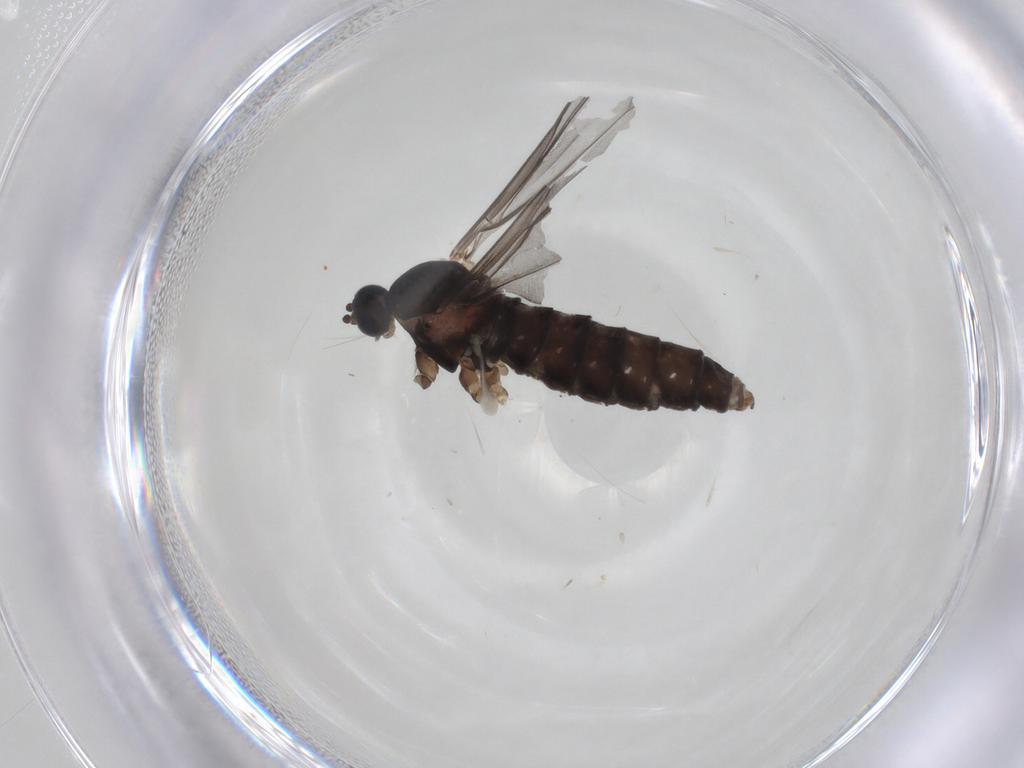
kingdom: Animalia
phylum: Arthropoda
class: Insecta
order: Diptera
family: Cecidomyiidae
